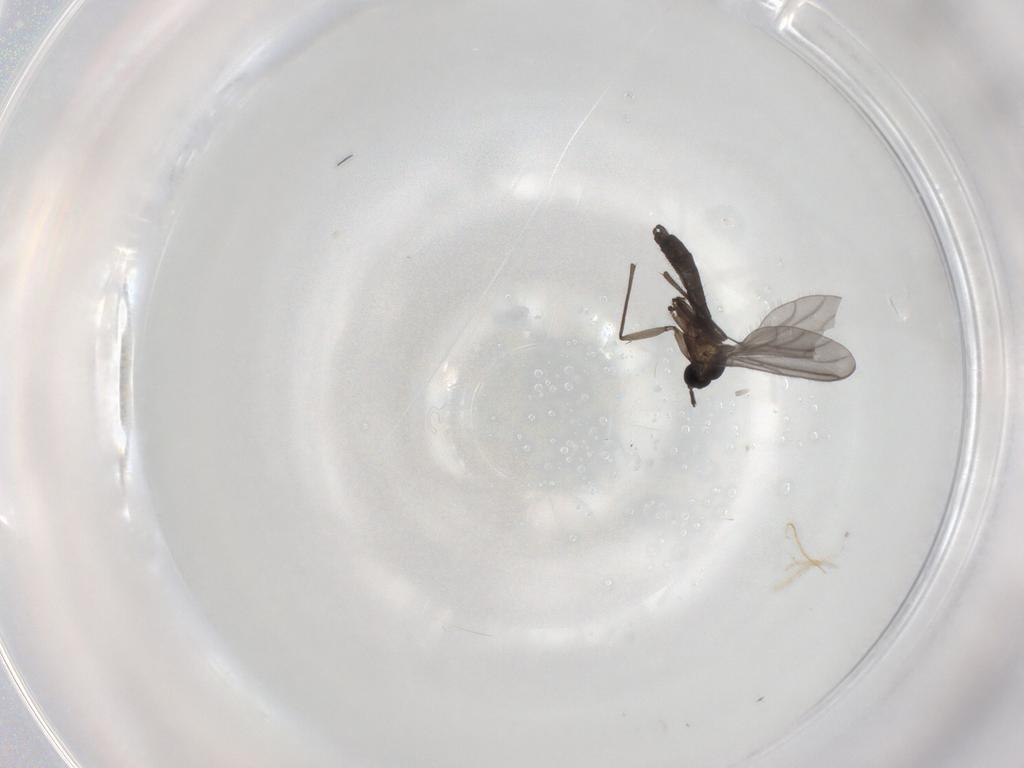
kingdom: Animalia
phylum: Arthropoda
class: Insecta
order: Diptera
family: Sciaridae
